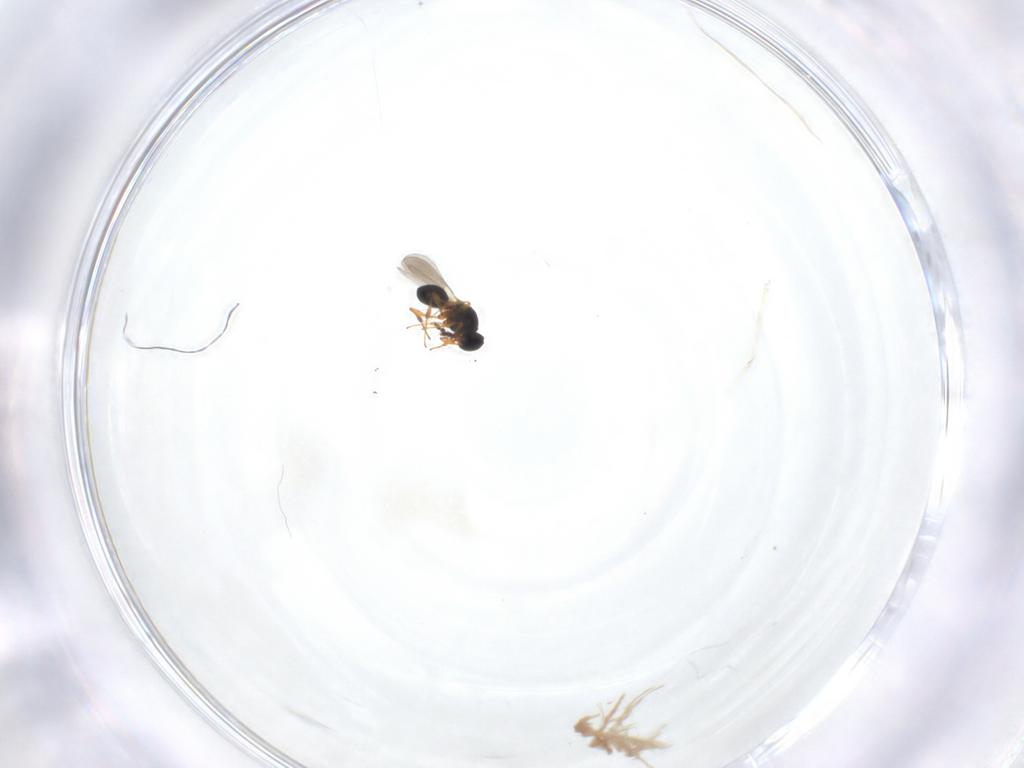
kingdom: Animalia
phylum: Arthropoda
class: Insecta
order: Hymenoptera
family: Platygastridae
